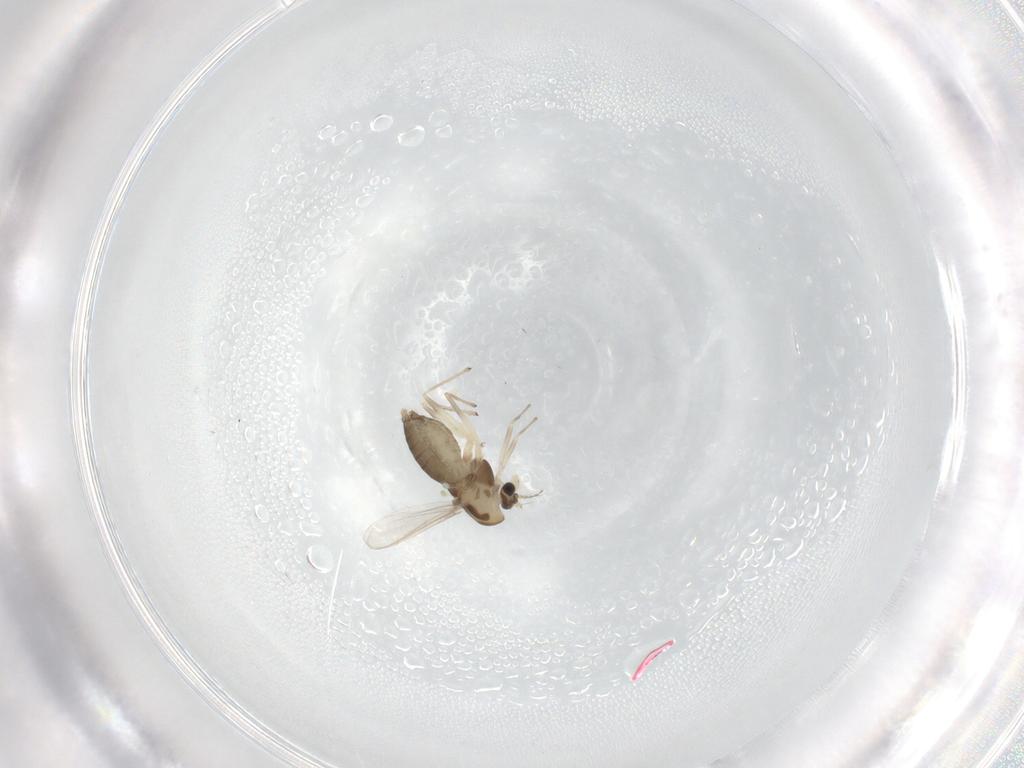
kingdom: Animalia
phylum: Arthropoda
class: Insecta
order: Diptera
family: Chironomidae
